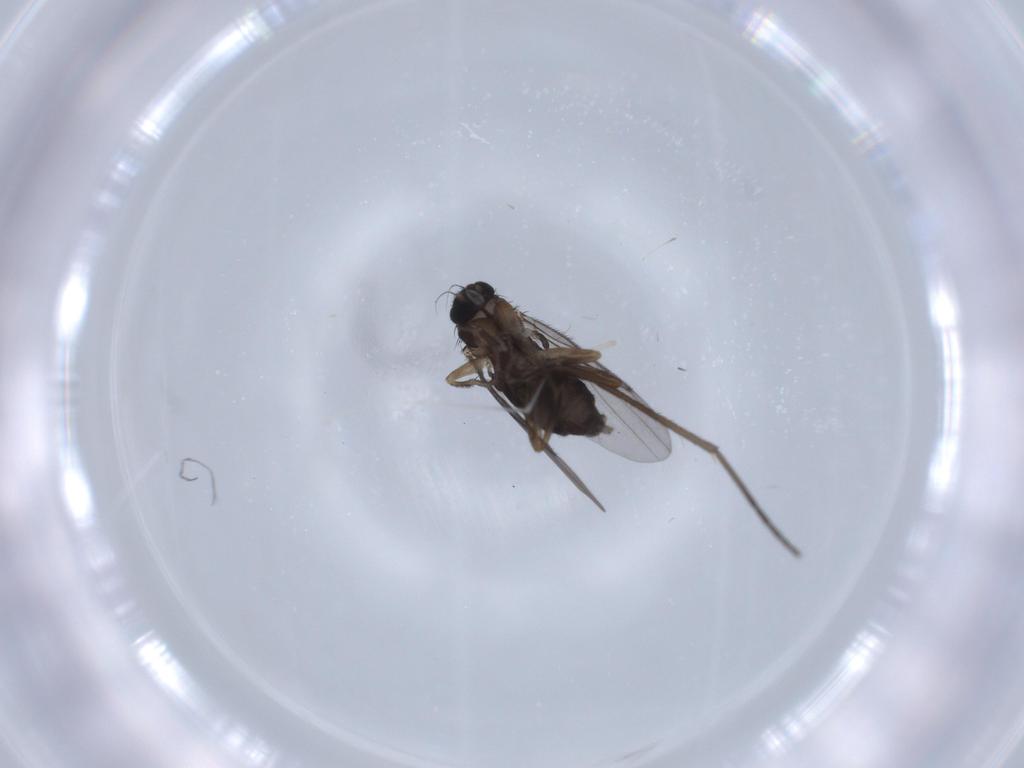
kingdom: Animalia
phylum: Arthropoda
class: Insecta
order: Diptera
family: Sciaridae
